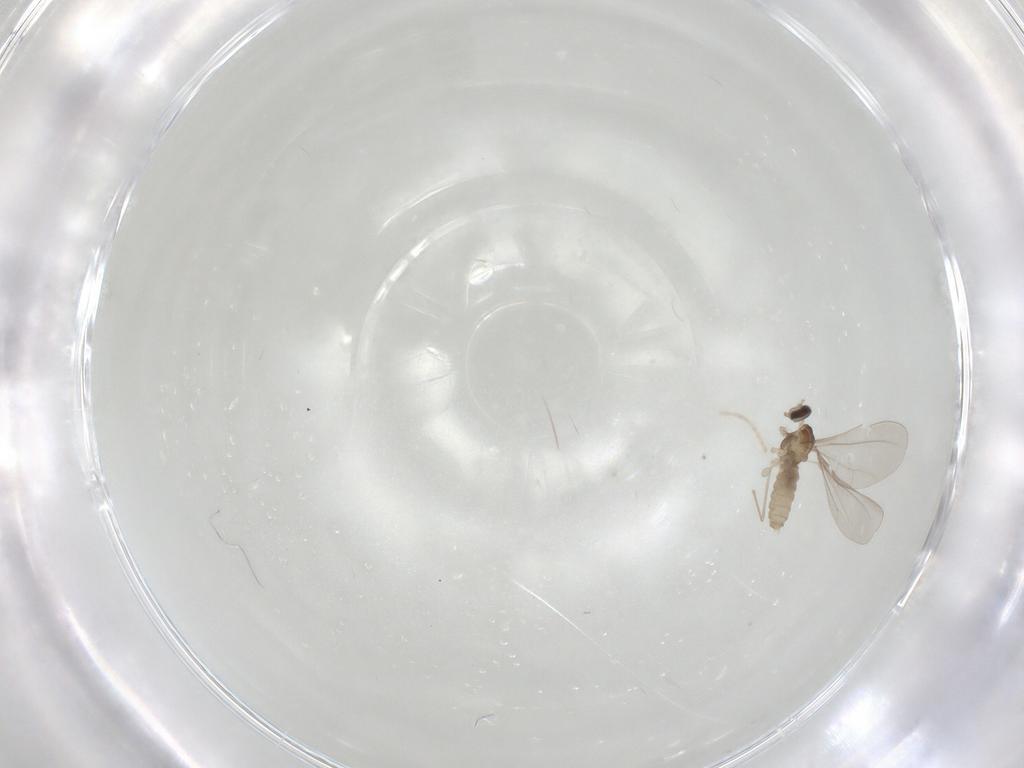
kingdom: Animalia
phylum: Arthropoda
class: Insecta
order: Diptera
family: Cecidomyiidae
